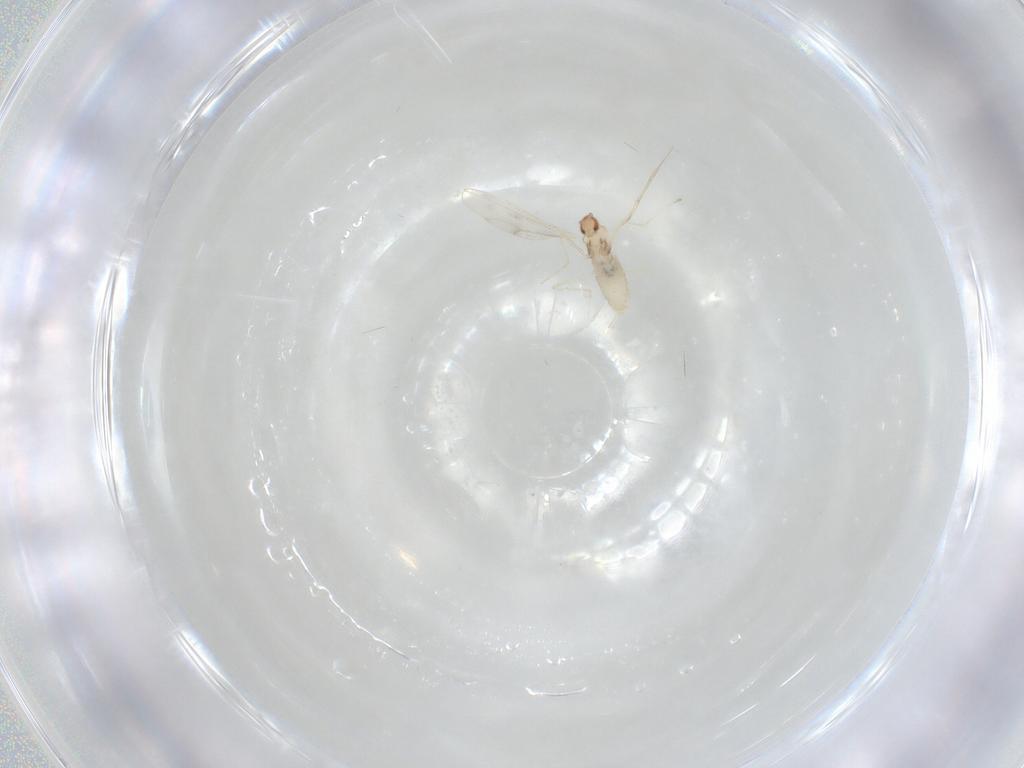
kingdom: Animalia
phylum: Arthropoda
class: Insecta
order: Diptera
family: Cecidomyiidae
